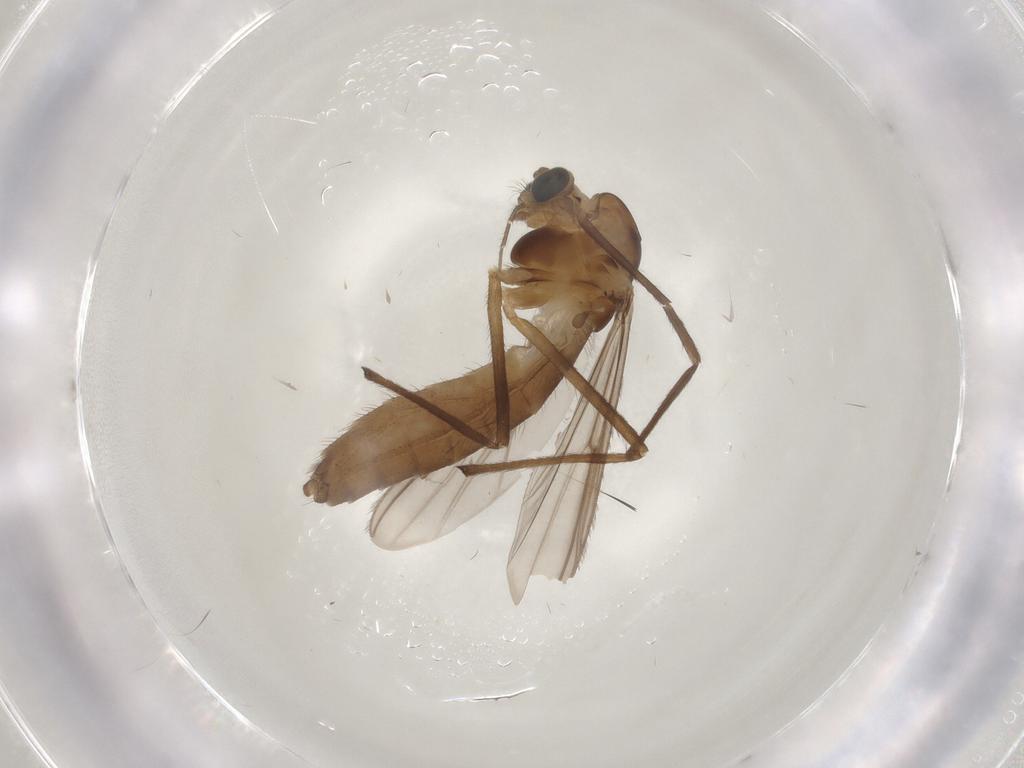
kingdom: Animalia
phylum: Arthropoda
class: Insecta
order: Diptera
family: Chironomidae
